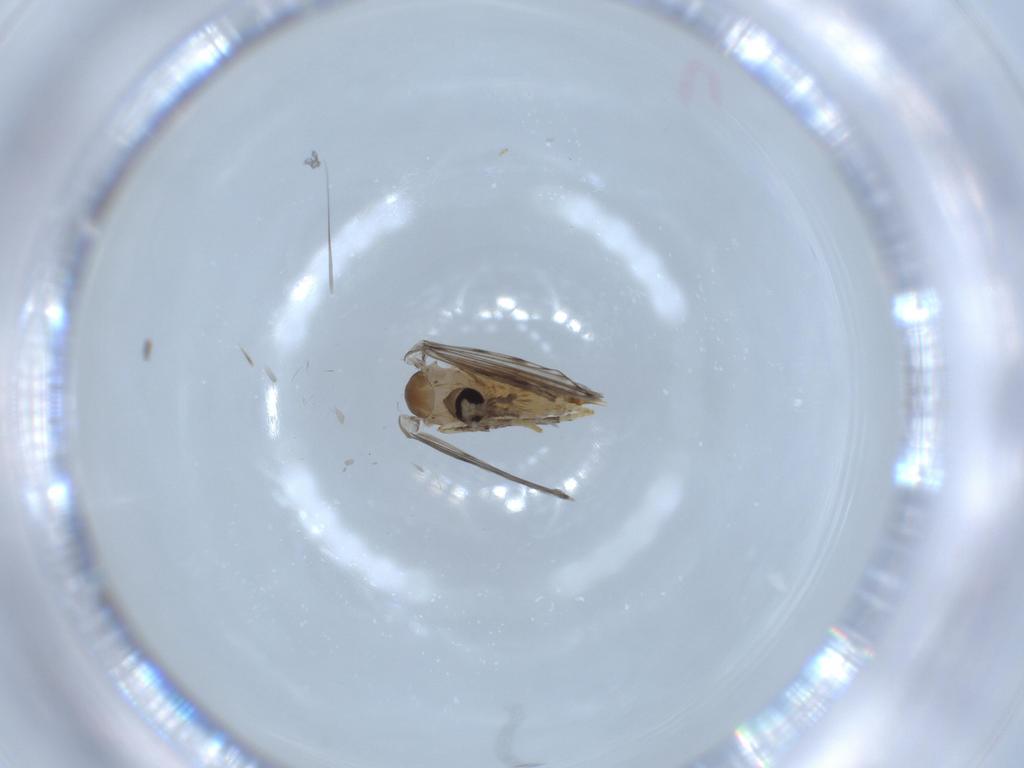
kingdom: Animalia
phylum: Arthropoda
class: Insecta
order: Diptera
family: Psychodidae
